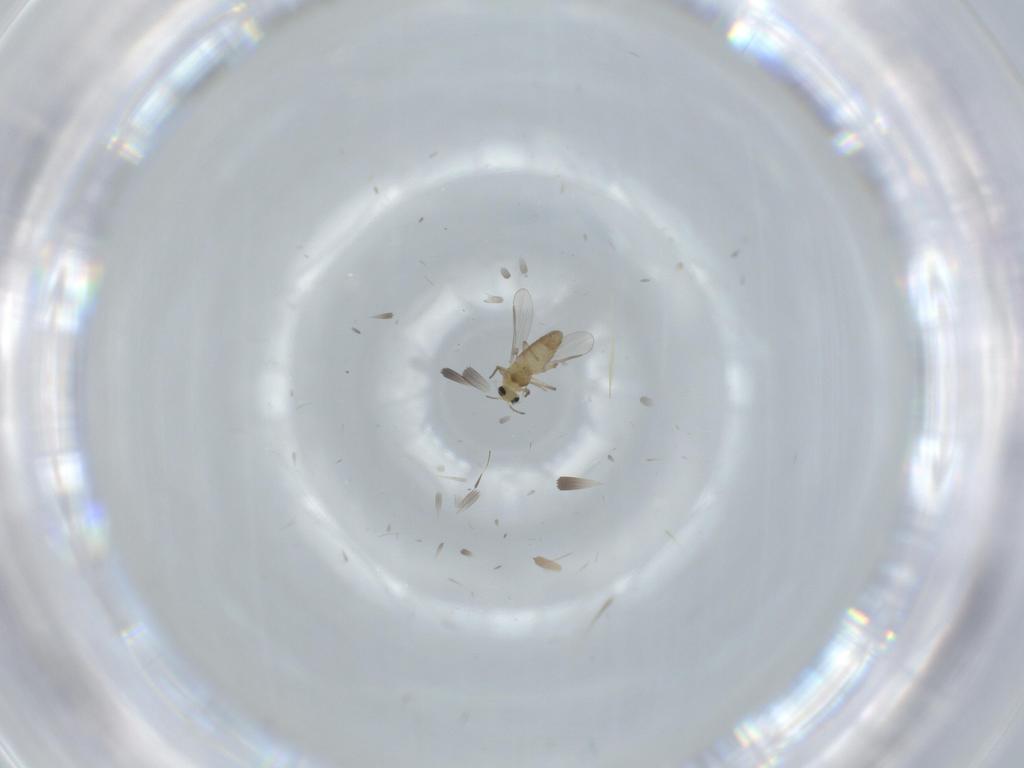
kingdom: Animalia
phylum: Arthropoda
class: Insecta
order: Diptera
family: Chironomidae
